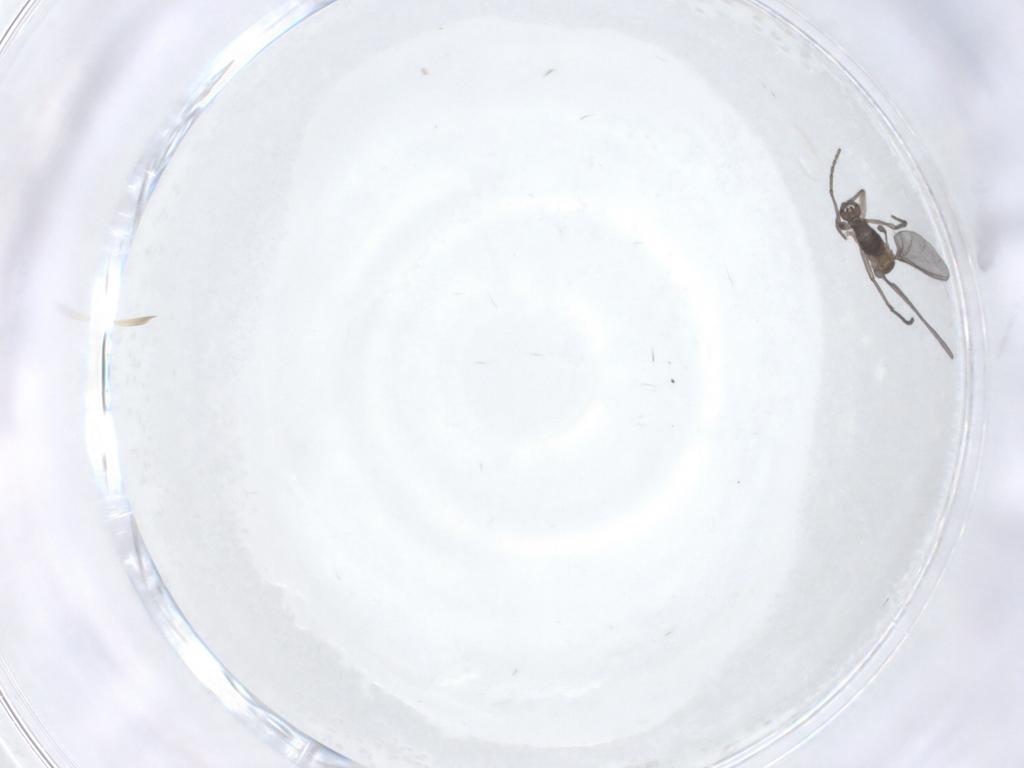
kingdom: Animalia
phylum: Arthropoda
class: Insecta
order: Diptera
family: Sciaridae
